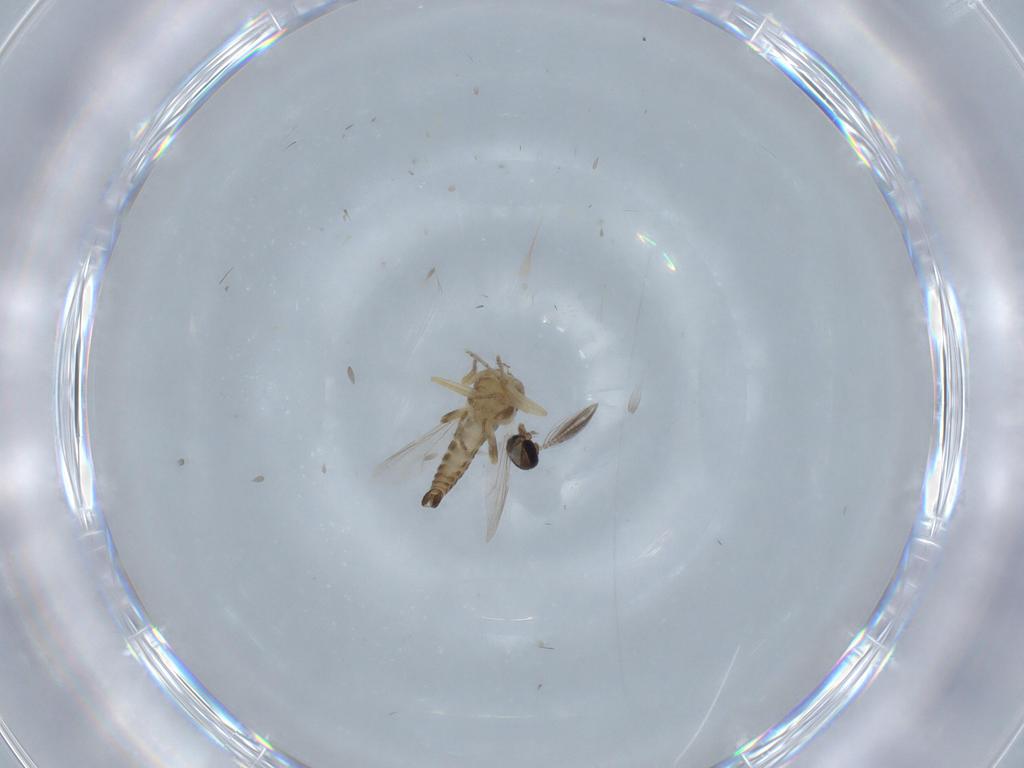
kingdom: Animalia
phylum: Arthropoda
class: Insecta
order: Diptera
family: Ceratopogonidae
